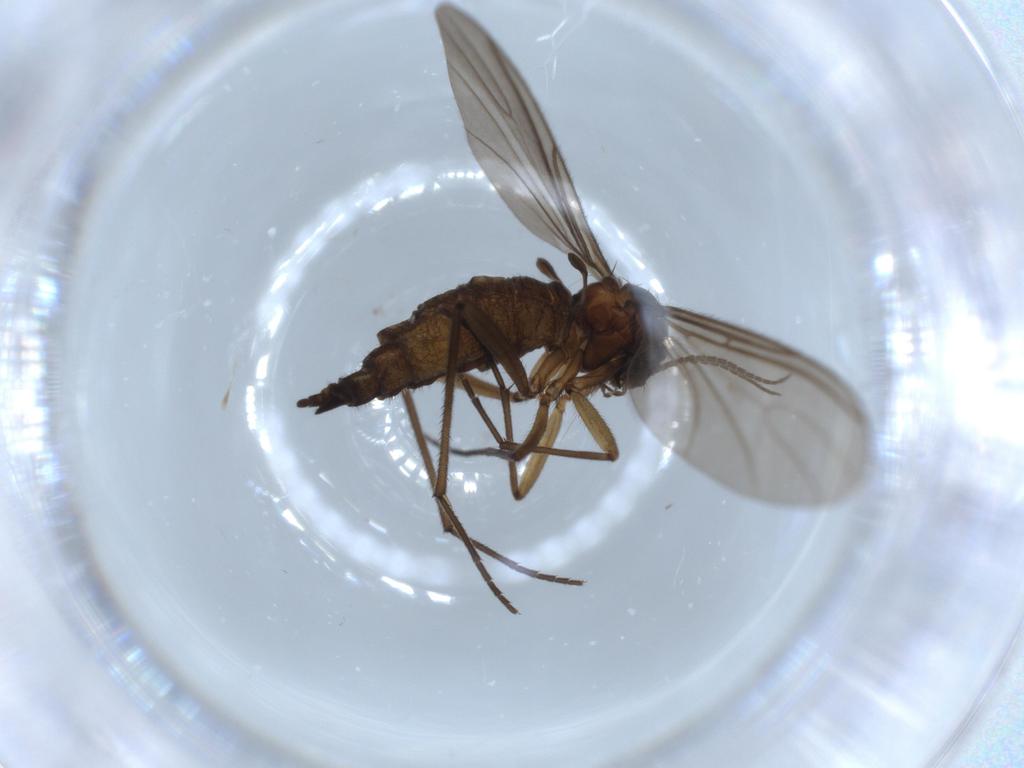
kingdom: Animalia
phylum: Arthropoda
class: Insecta
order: Diptera
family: Sciaridae
